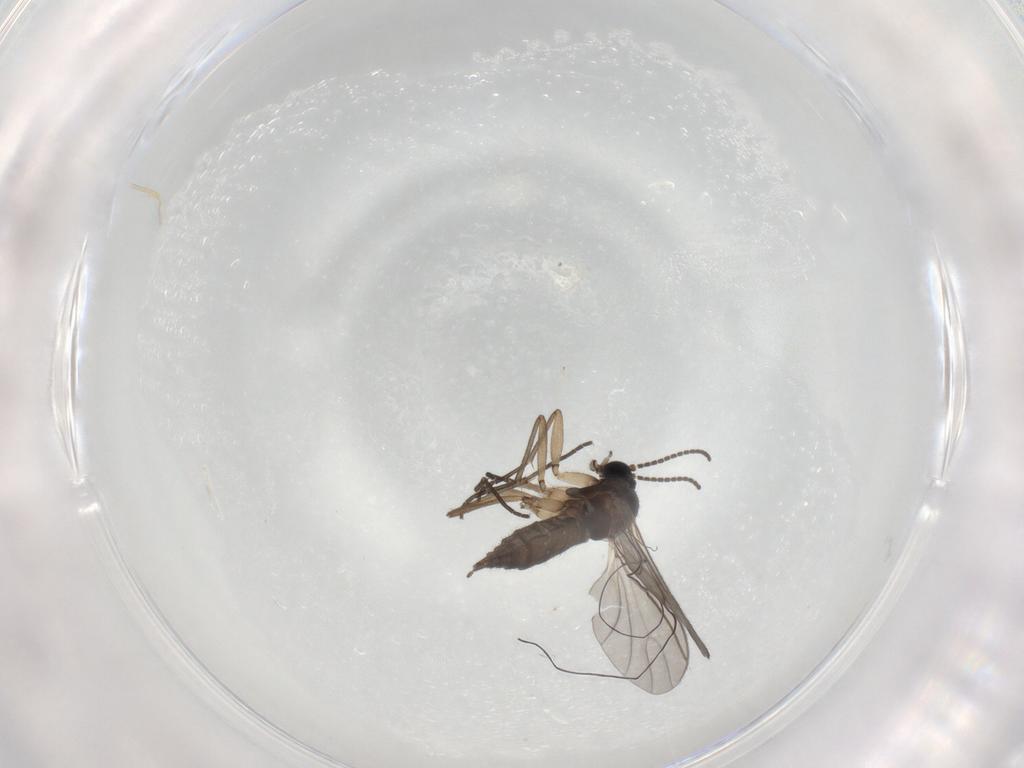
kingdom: Animalia
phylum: Arthropoda
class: Insecta
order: Diptera
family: Sciaridae
